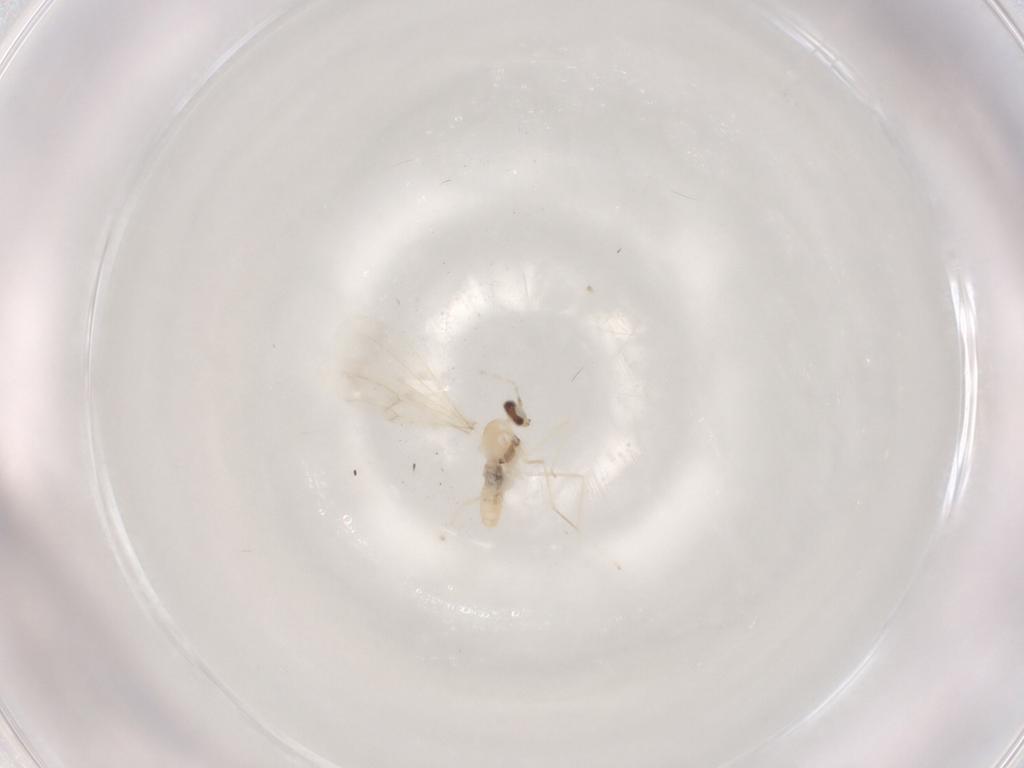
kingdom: Animalia
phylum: Arthropoda
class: Insecta
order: Diptera
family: Cecidomyiidae
